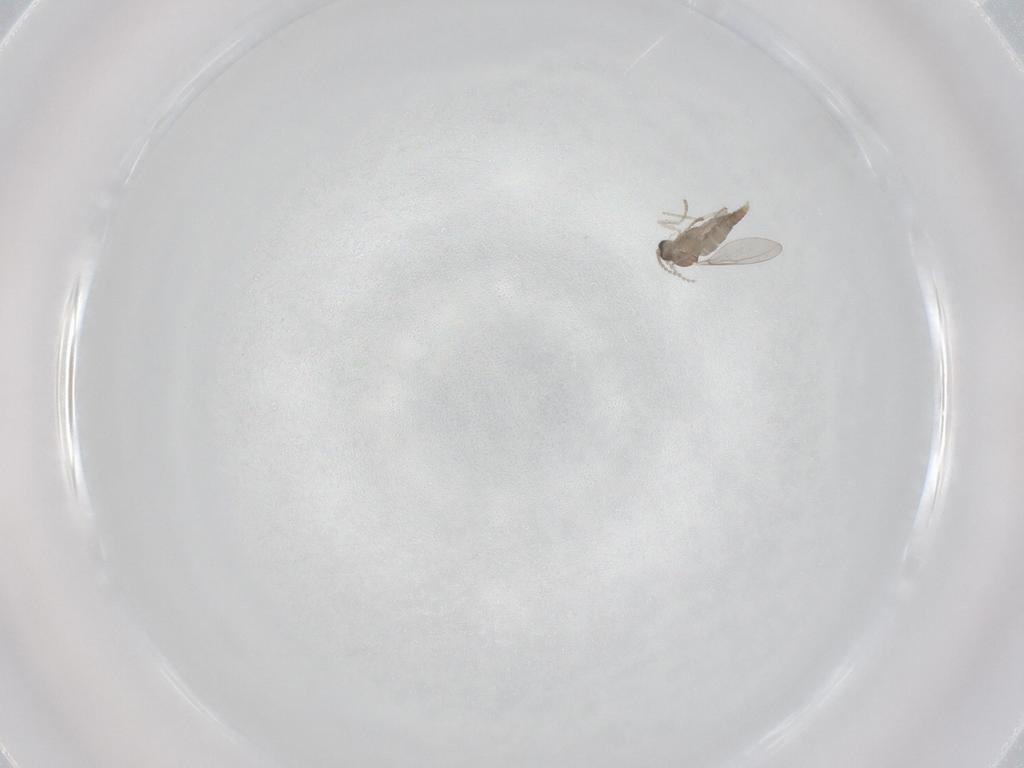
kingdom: Animalia
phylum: Arthropoda
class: Insecta
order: Diptera
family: Cecidomyiidae
